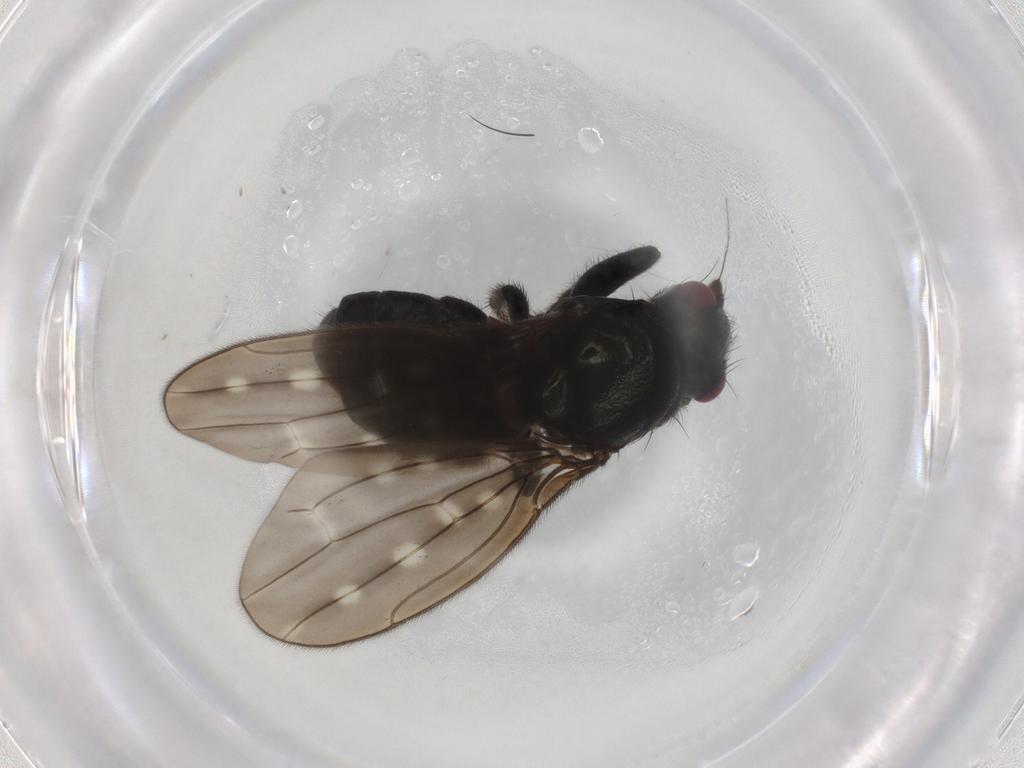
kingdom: Animalia
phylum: Arthropoda
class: Insecta
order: Diptera
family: Sphaeroceridae
